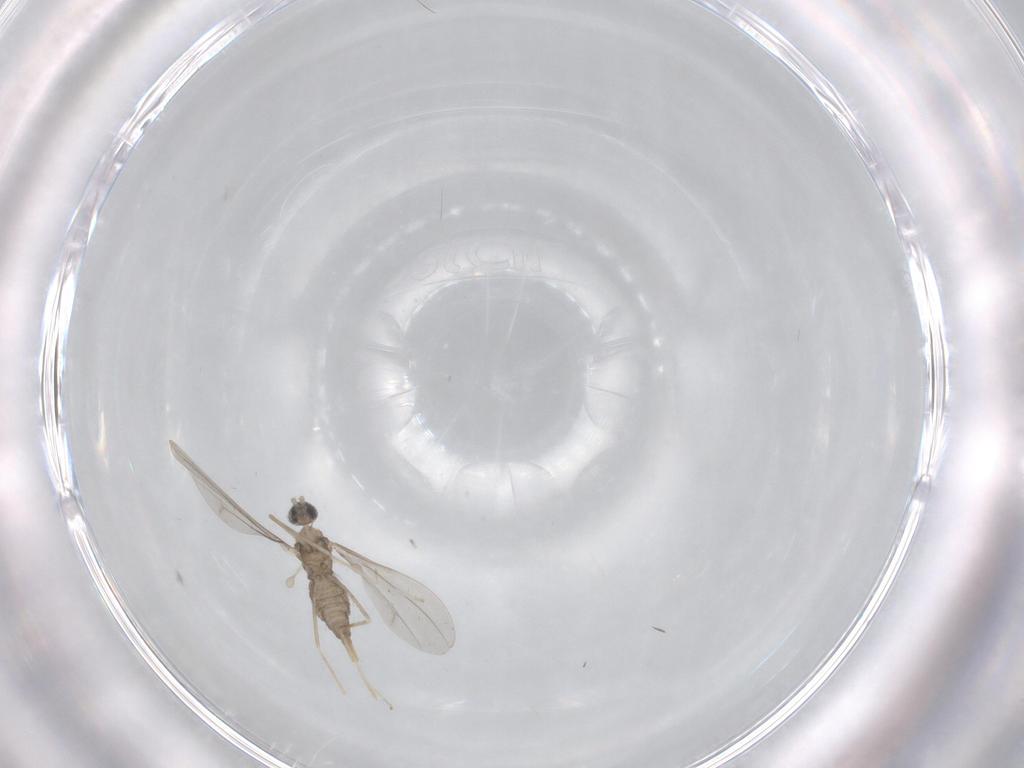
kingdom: Animalia
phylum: Arthropoda
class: Insecta
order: Diptera
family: Cecidomyiidae
